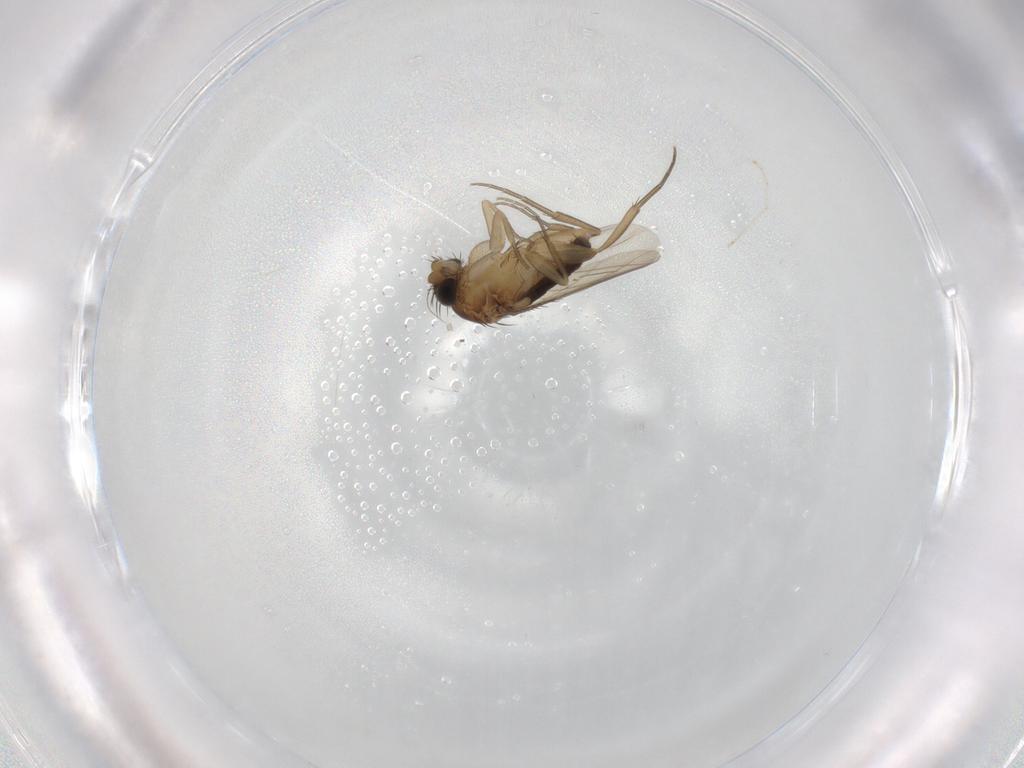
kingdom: Animalia
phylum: Arthropoda
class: Insecta
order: Diptera
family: Phoridae
